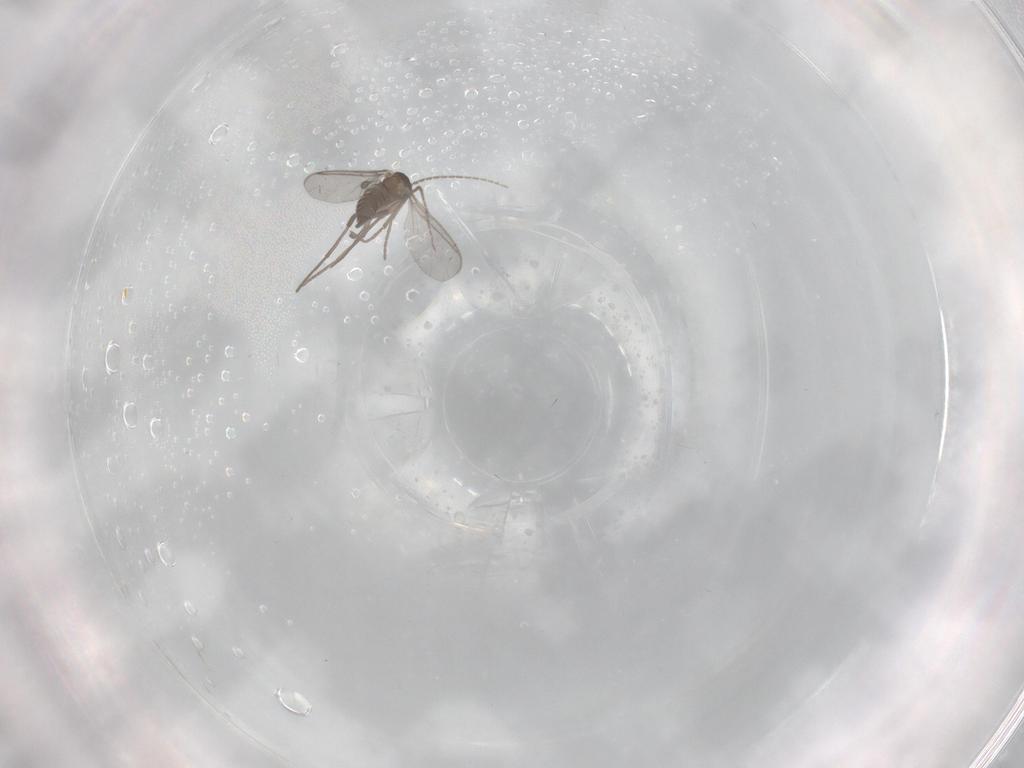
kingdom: Animalia
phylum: Arthropoda
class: Insecta
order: Diptera
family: Sciaridae
